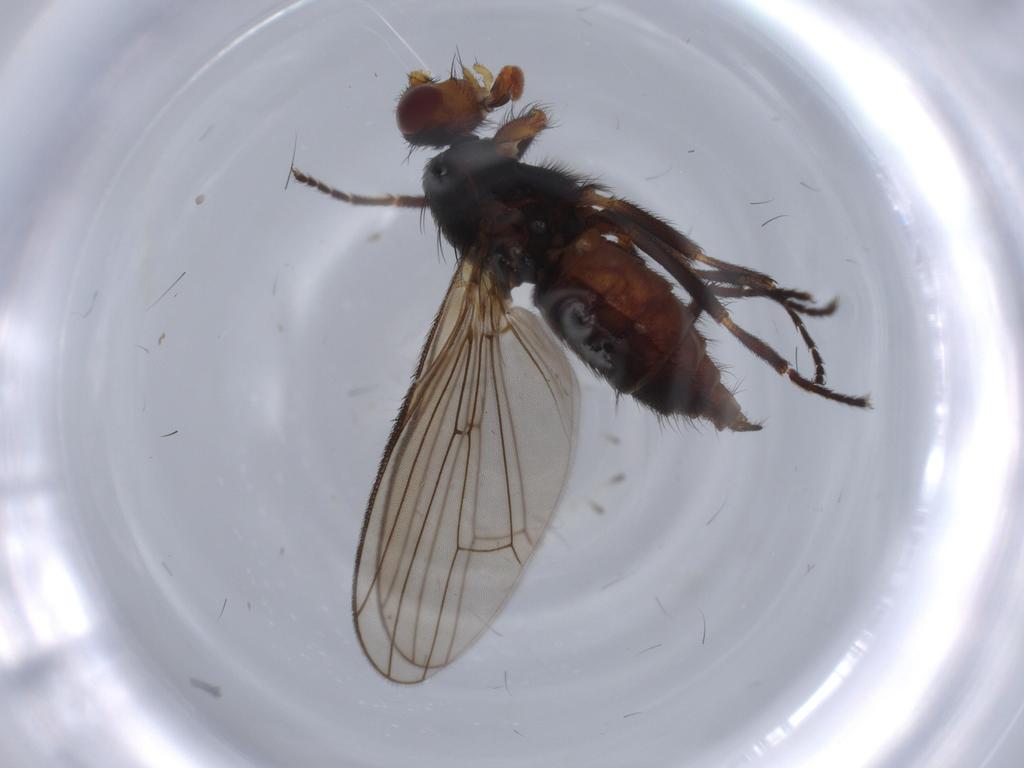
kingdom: Animalia
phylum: Arthropoda
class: Insecta
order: Diptera
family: Heleomyzidae
